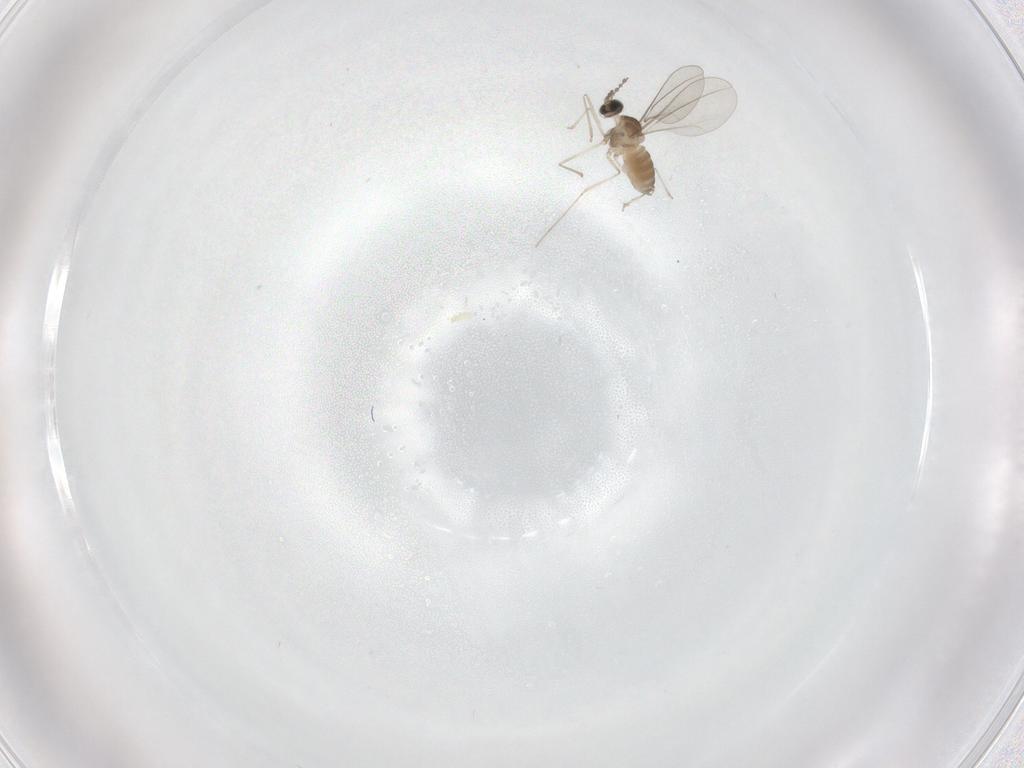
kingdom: Animalia
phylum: Arthropoda
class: Insecta
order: Diptera
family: Cecidomyiidae
